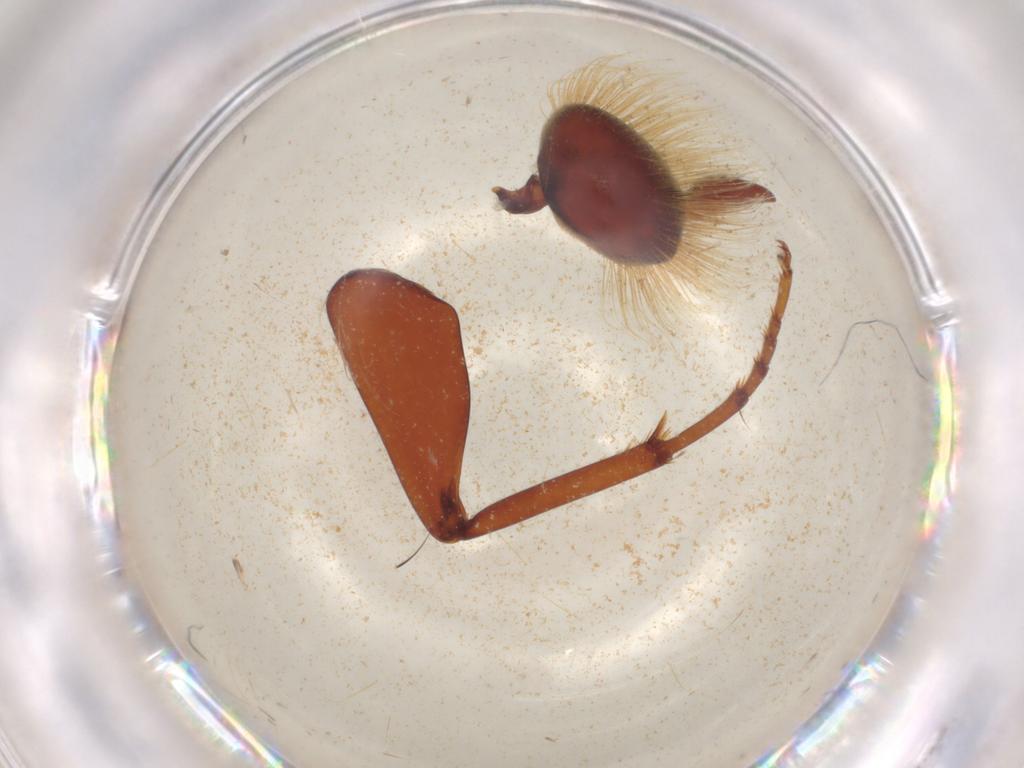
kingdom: Animalia
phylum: Arthropoda
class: Insecta
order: Hymenoptera
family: Formicidae
